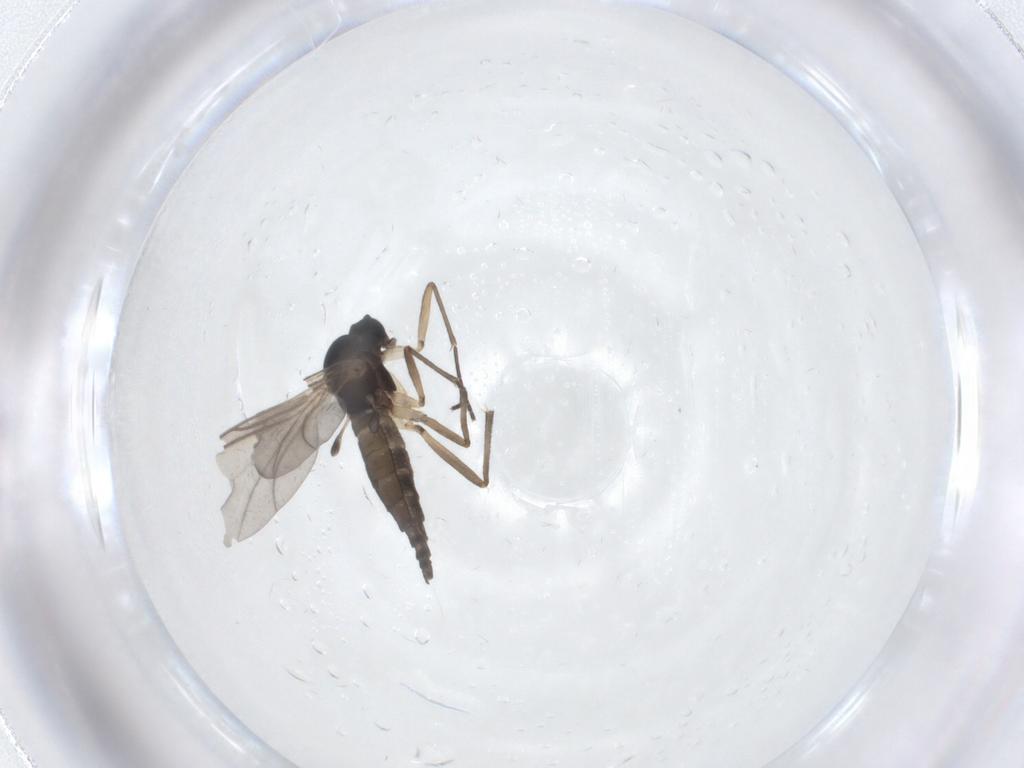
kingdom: Animalia
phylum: Arthropoda
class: Insecta
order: Diptera
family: Sciaridae
